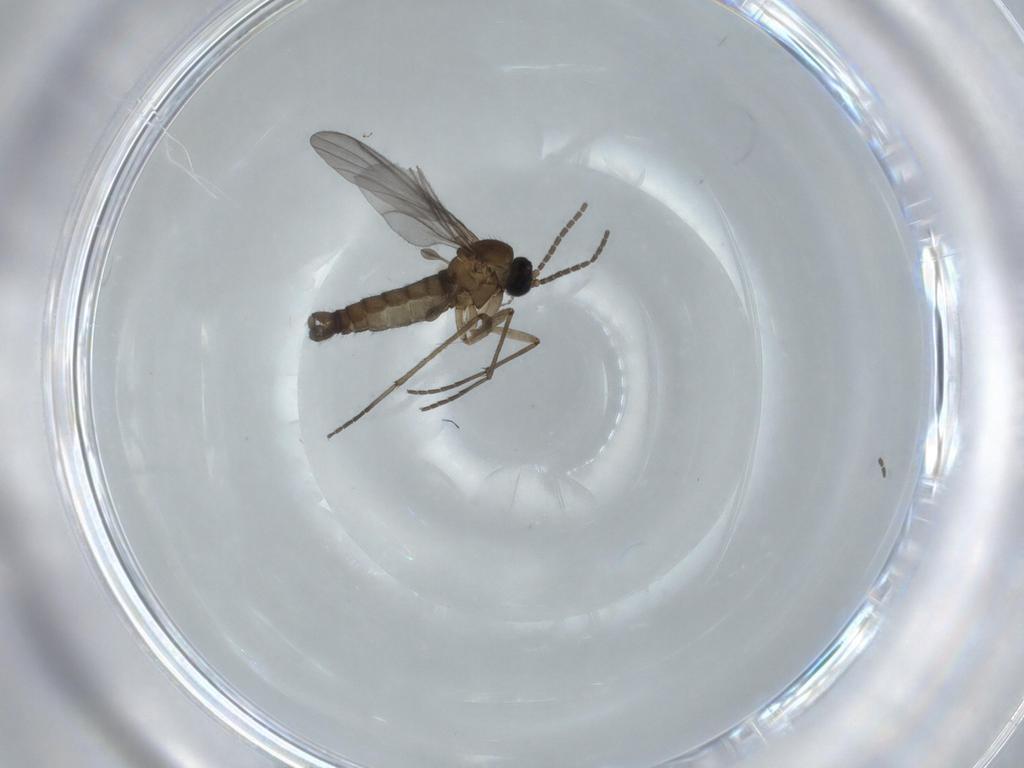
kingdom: Animalia
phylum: Arthropoda
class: Insecta
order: Diptera
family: Sciaridae
